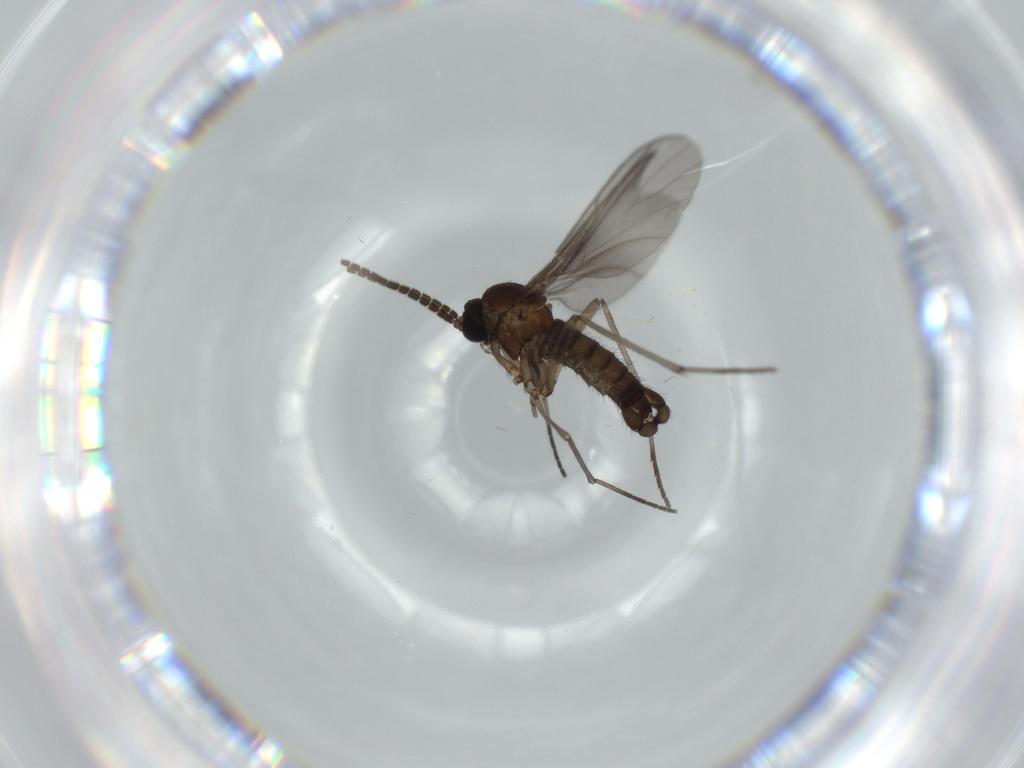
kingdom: Animalia
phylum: Arthropoda
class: Insecta
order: Diptera
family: Sciaridae
